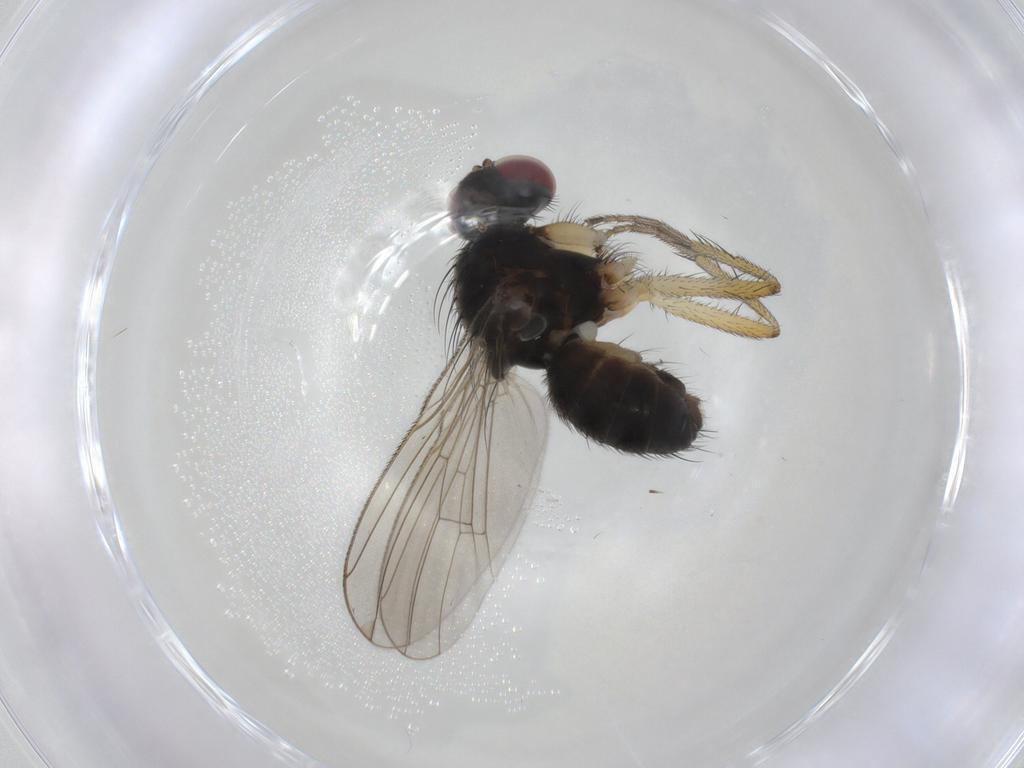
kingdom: Animalia
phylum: Arthropoda
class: Insecta
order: Diptera
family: Muscidae
